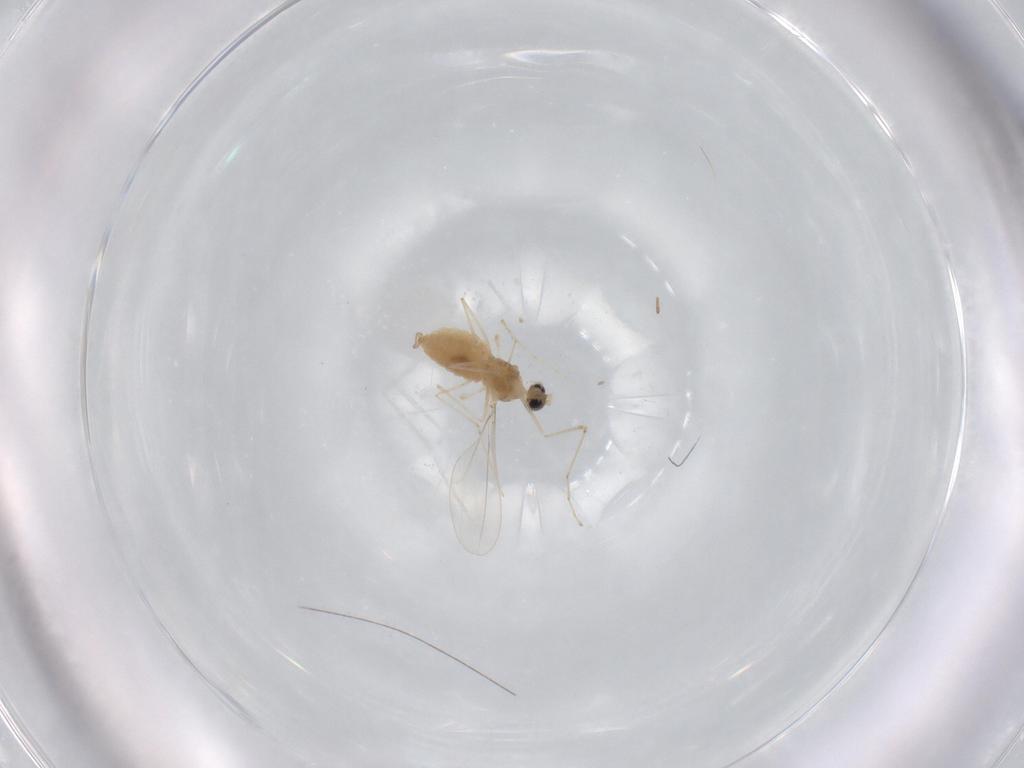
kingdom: Animalia
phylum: Arthropoda
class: Insecta
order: Diptera
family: Cecidomyiidae
